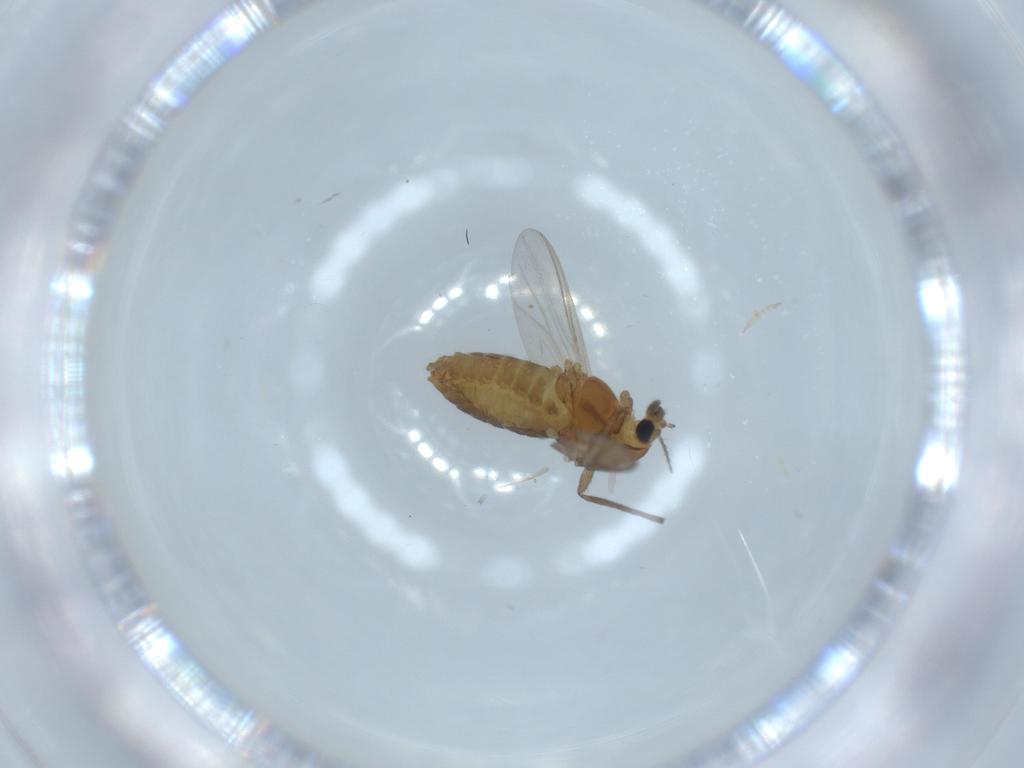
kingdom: Animalia
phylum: Arthropoda
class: Insecta
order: Diptera
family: Chironomidae
